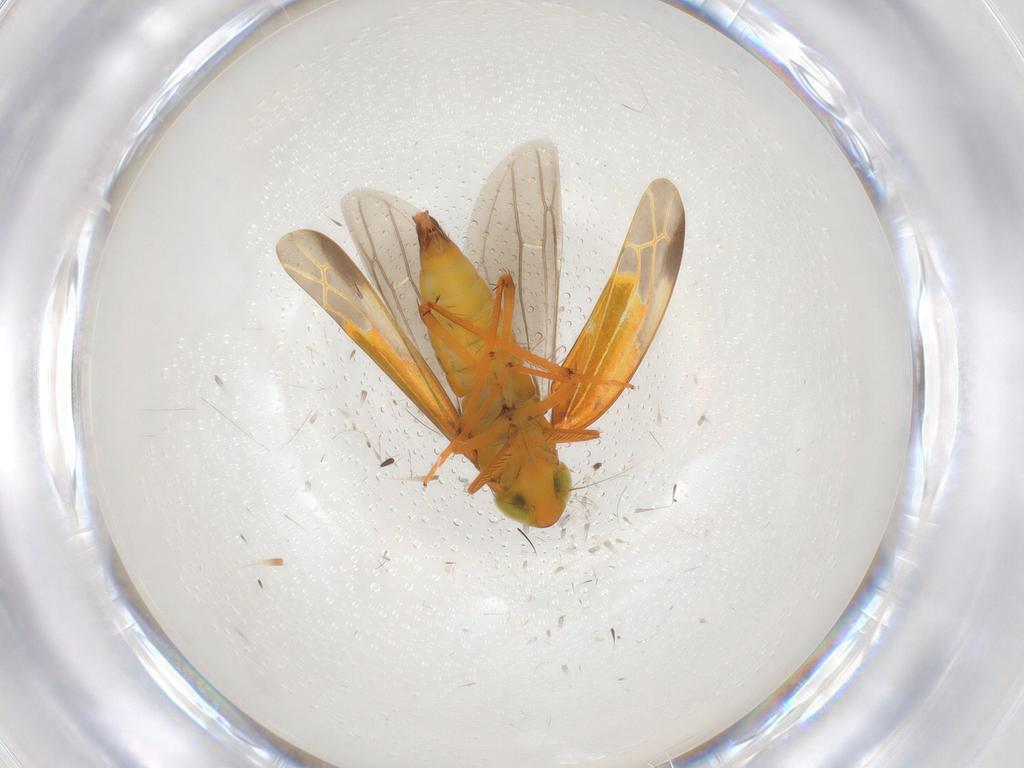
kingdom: Animalia
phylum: Arthropoda
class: Insecta
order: Hemiptera
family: Cicadellidae
